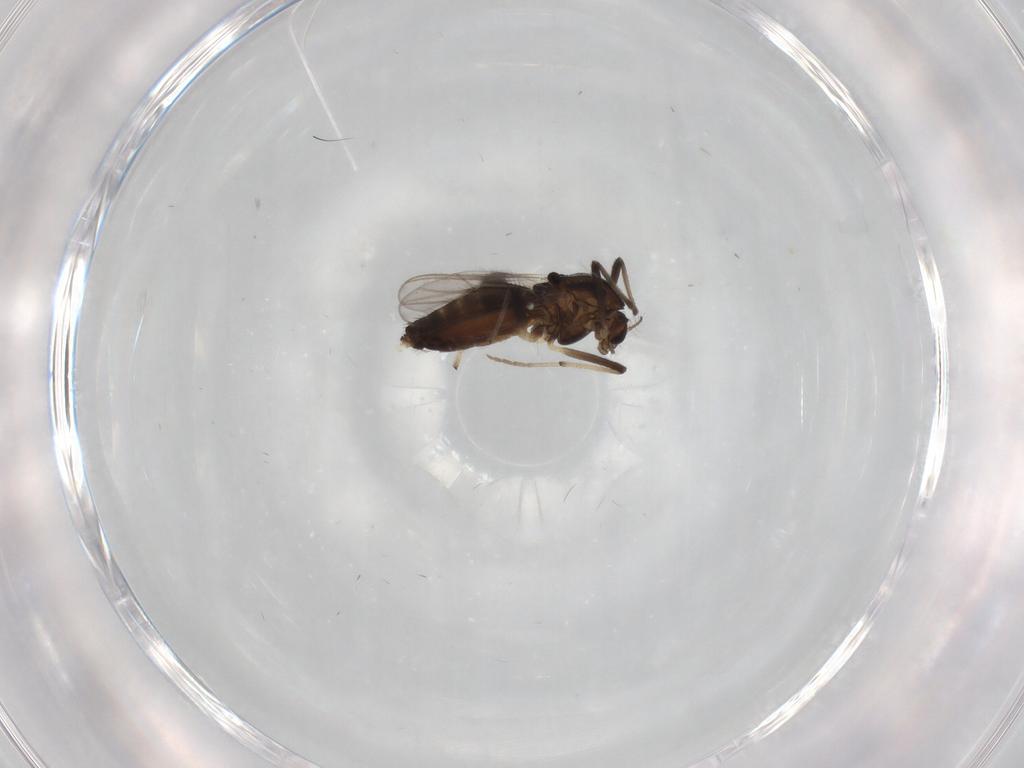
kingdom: Animalia
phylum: Arthropoda
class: Insecta
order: Diptera
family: Chironomidae
